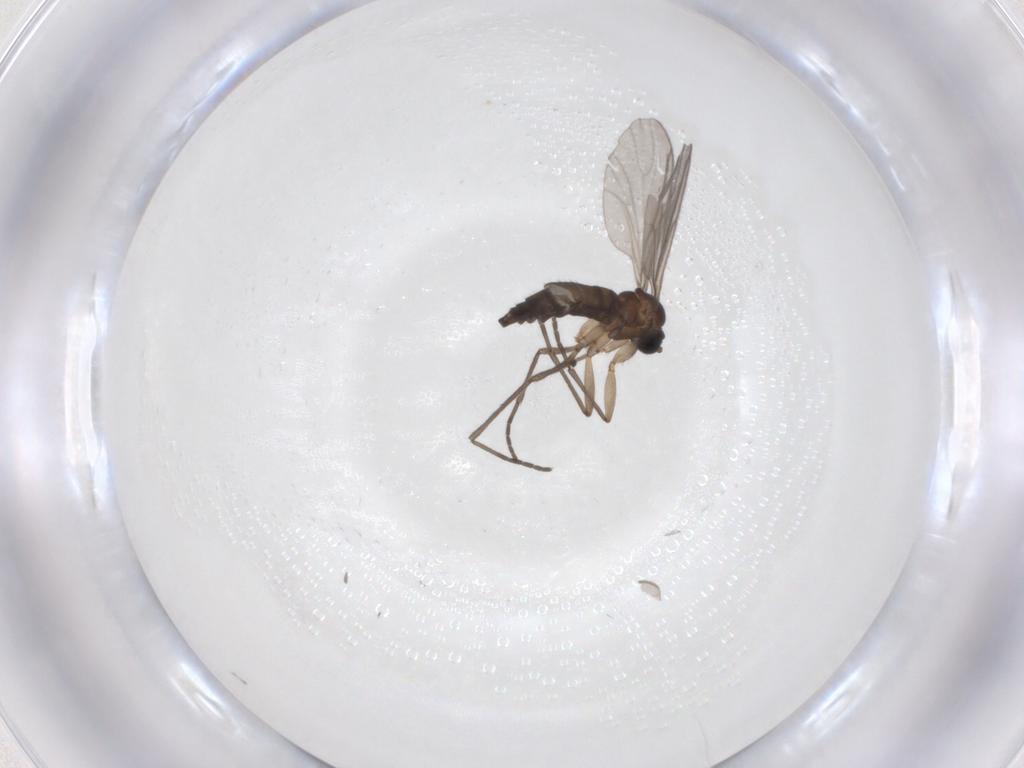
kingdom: Animalia
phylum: Arthropoda
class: Insecta
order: Diptera
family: Sciaridae
